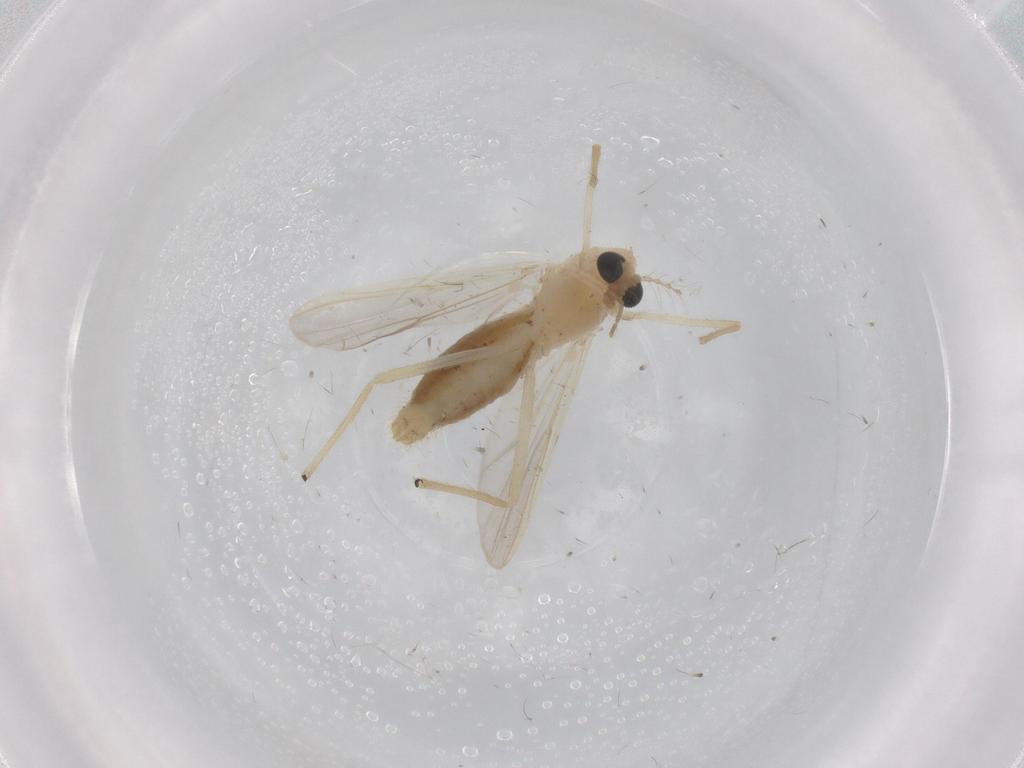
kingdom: Animalia
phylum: Arthropoda
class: Insecta
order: Diptera
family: Chironomidae
